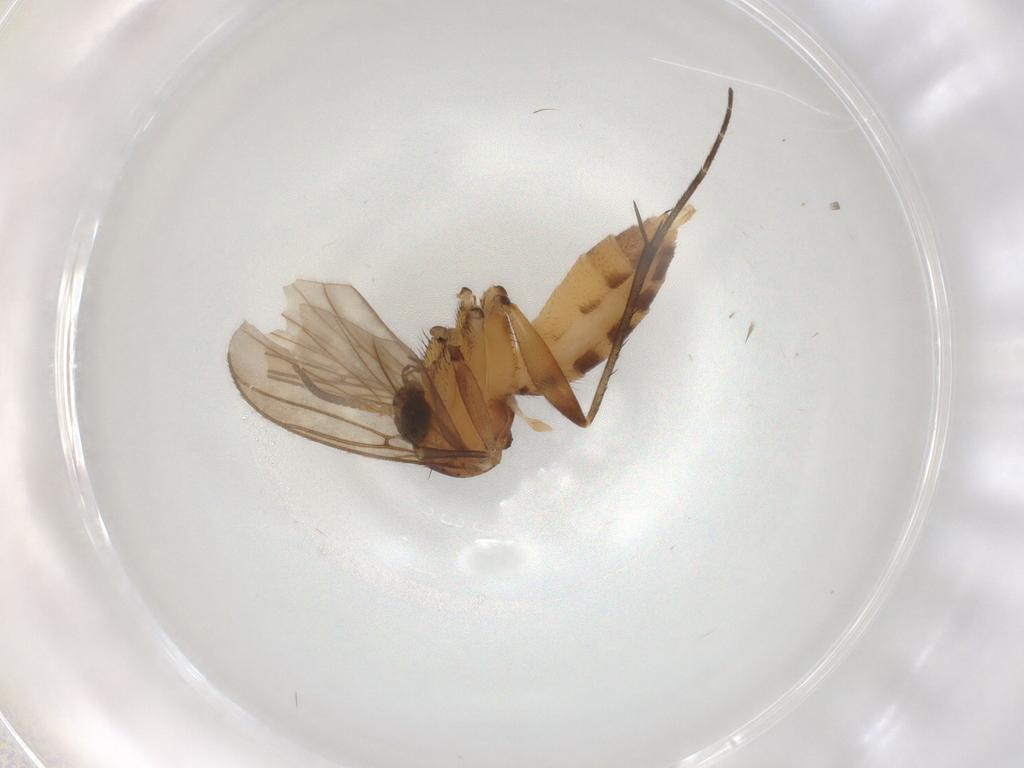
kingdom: Animalia
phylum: Arthropoda
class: Insecta
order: Diptera
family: Mycetophilidae
